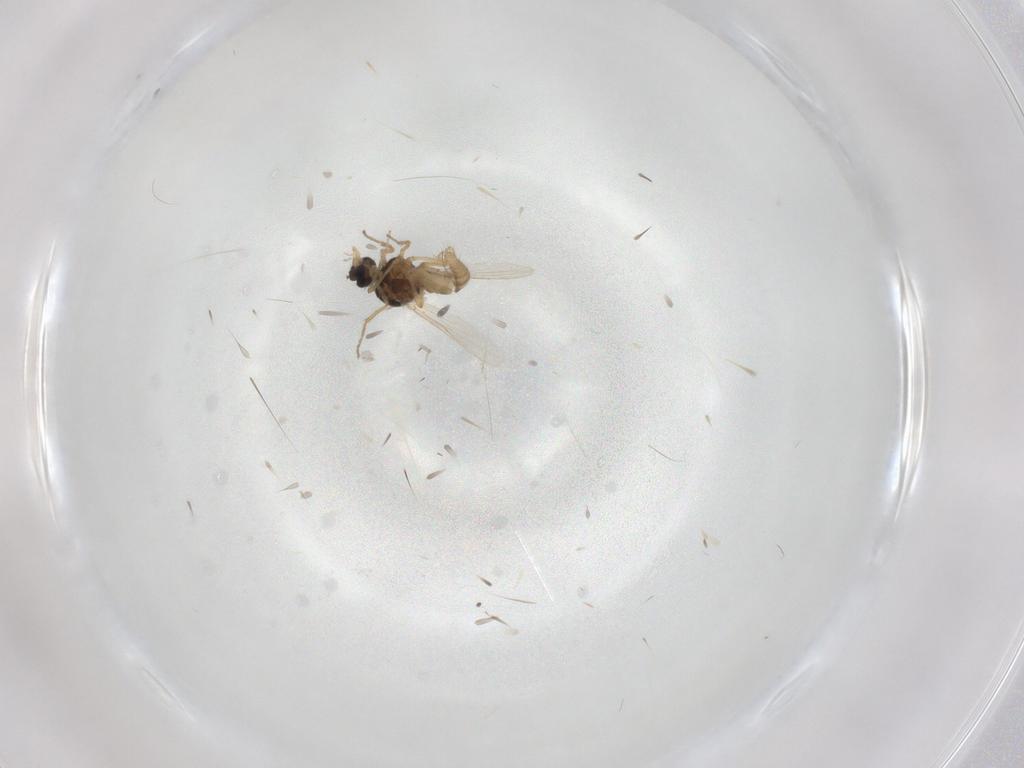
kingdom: Animalia
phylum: Arthropoda
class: Insecta
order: Diptera
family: Ceratopogonidae
